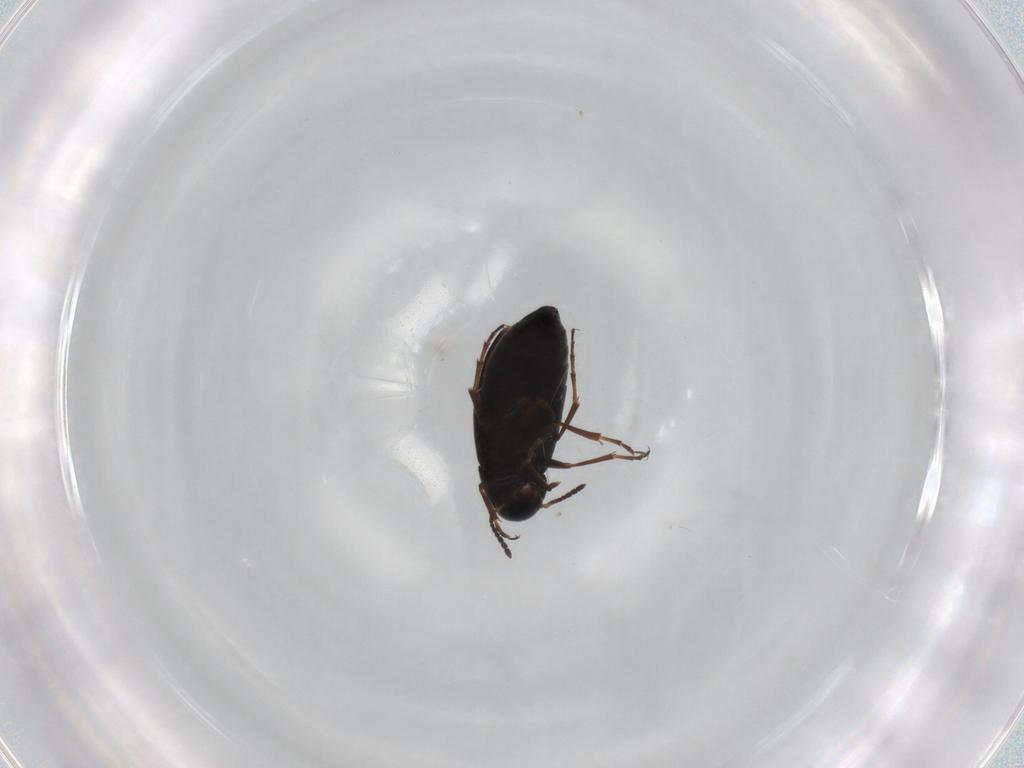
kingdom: Animalia
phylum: Arthropoda
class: Insecta
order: Coleoptera
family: Scraptiidae
